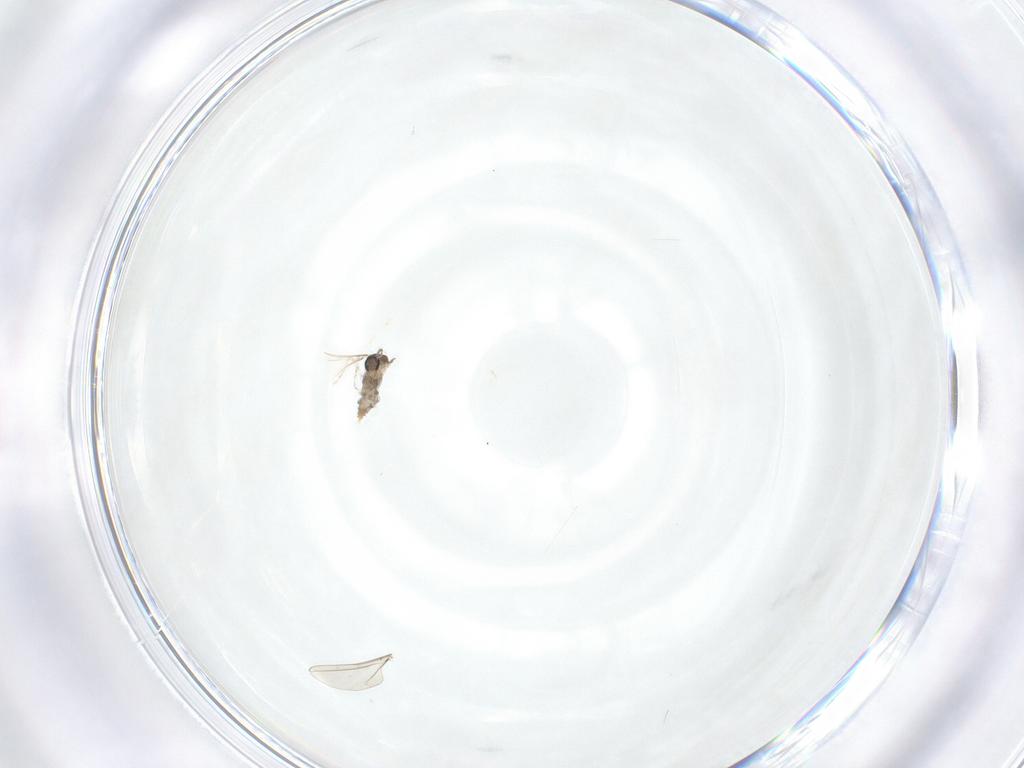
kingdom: Animalia
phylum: Arthropoda
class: Insecta
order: Diptera
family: Cecidomyiidae
